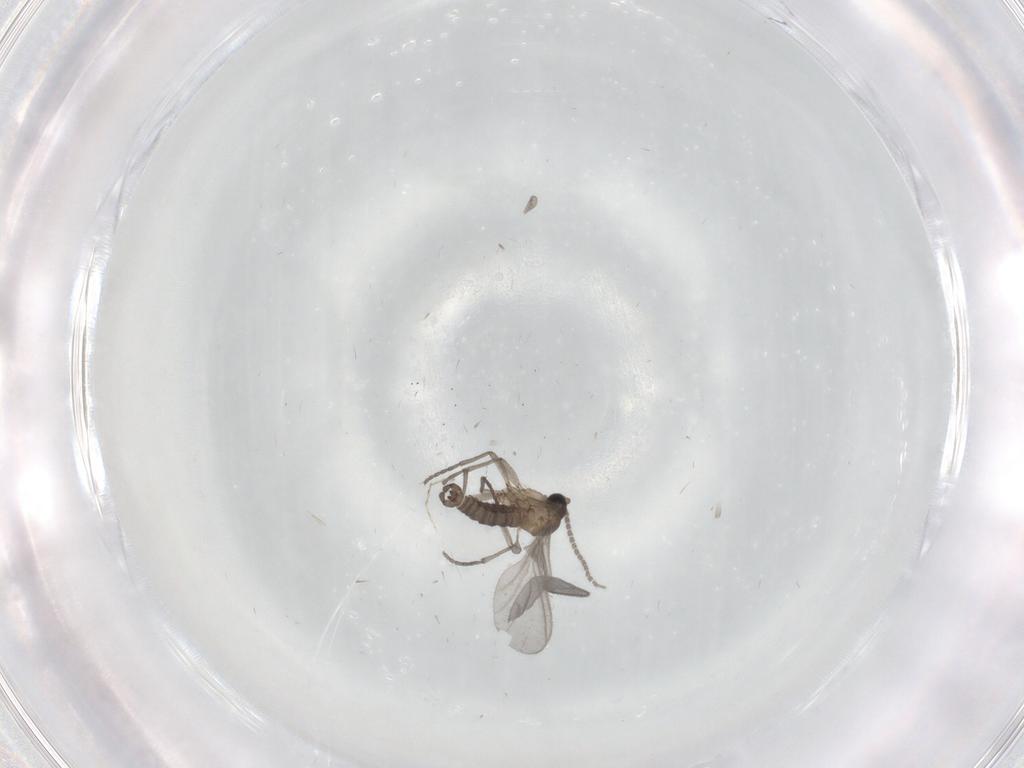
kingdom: Animalia
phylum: Arthropoda
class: Insecta
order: Diptera
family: Sciaridae
